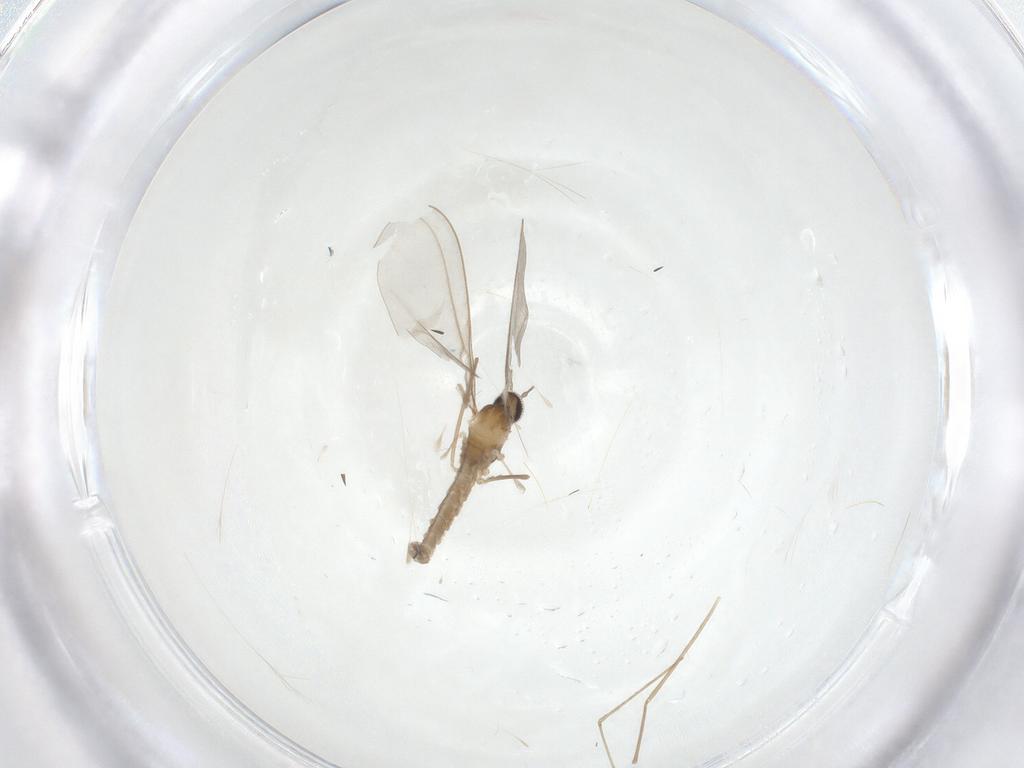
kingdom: Animalia
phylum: Arthropoda
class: Insecta
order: Diptera
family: Cecidomyiidae
